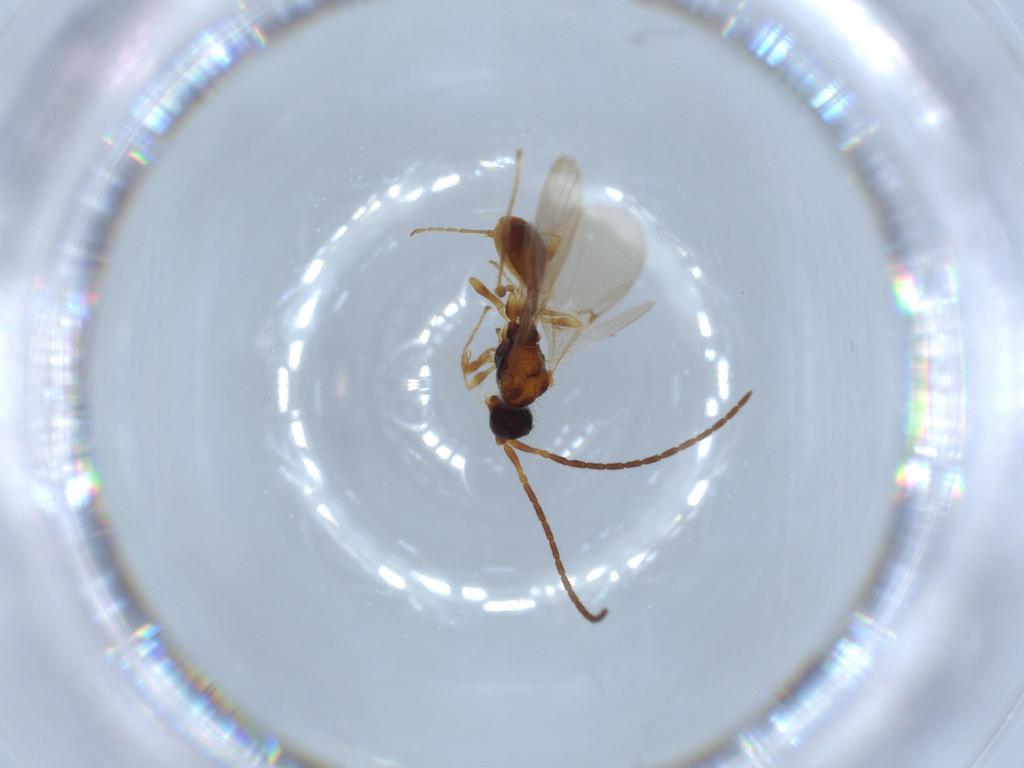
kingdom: Animalia
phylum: Arthropoda
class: Insecta
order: Hymenoptera
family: Diapriidae
